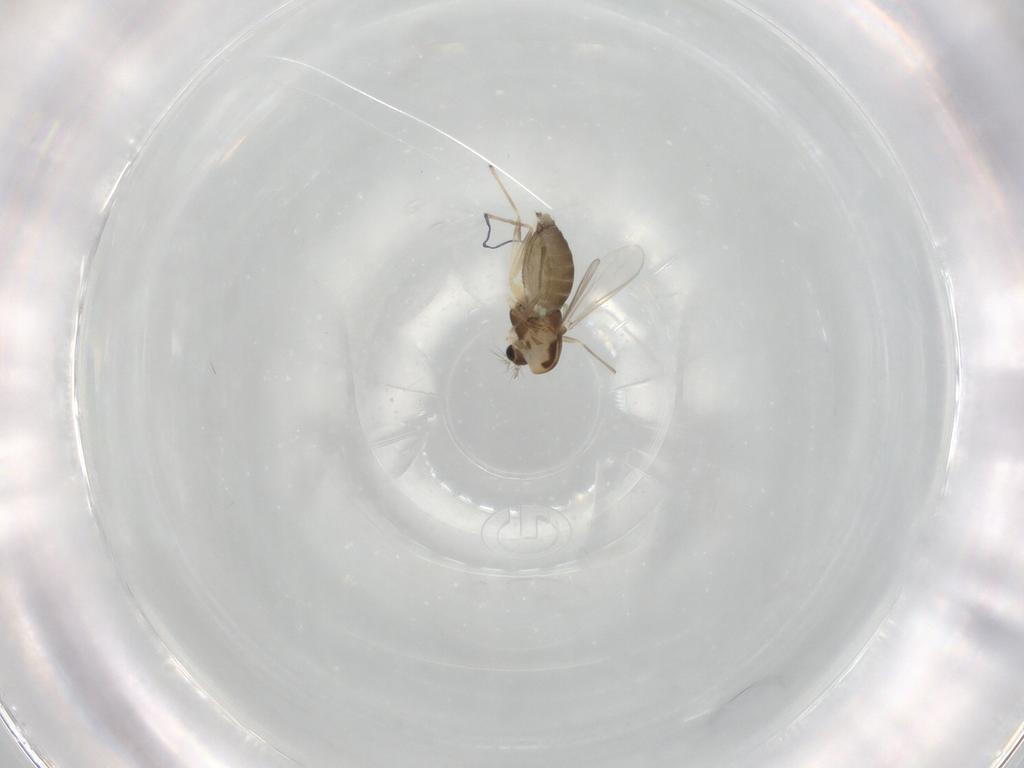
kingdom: Animalia
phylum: Arthropoda
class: Insecta
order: Diptera
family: Chironomidae
